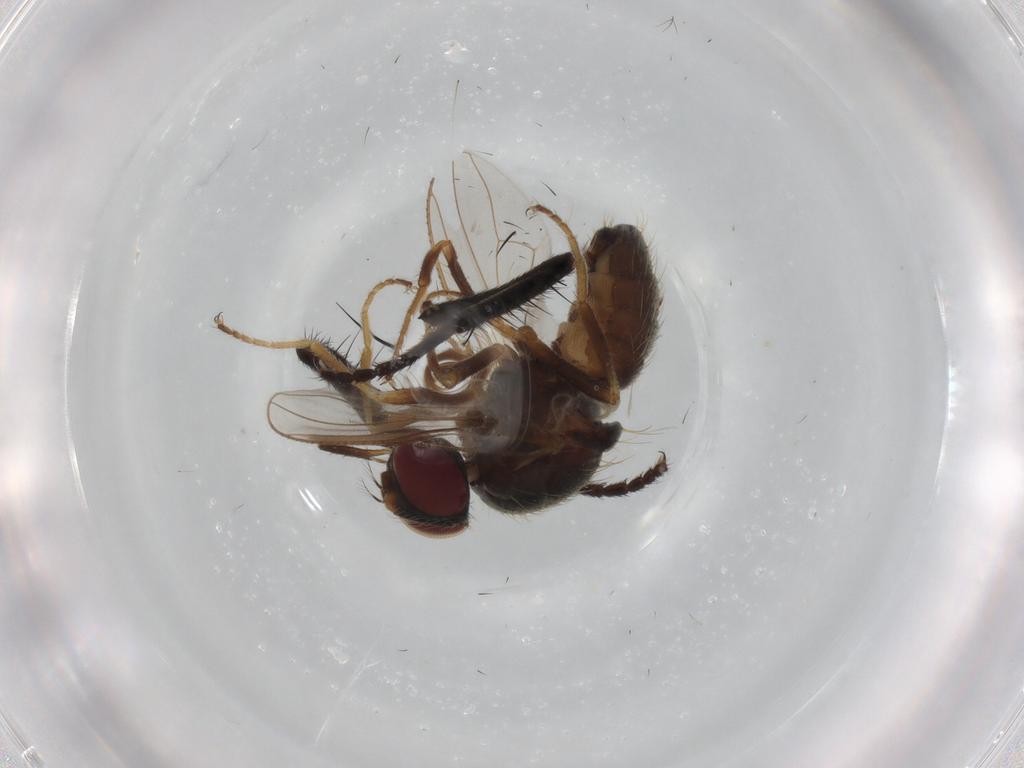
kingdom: Animalia
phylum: Arthropoda
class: Insecta
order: Diptera
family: Muscidae
